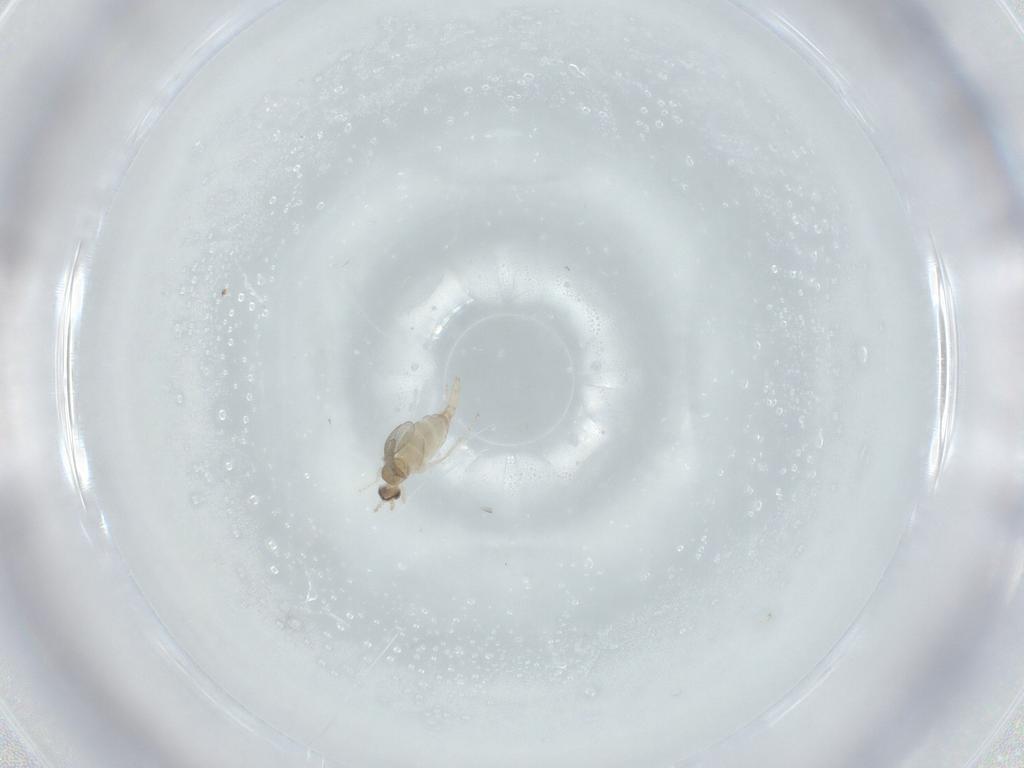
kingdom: Animalia
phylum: Arthropoda
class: Insecta
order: Diptera
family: Cecidomyiidae
